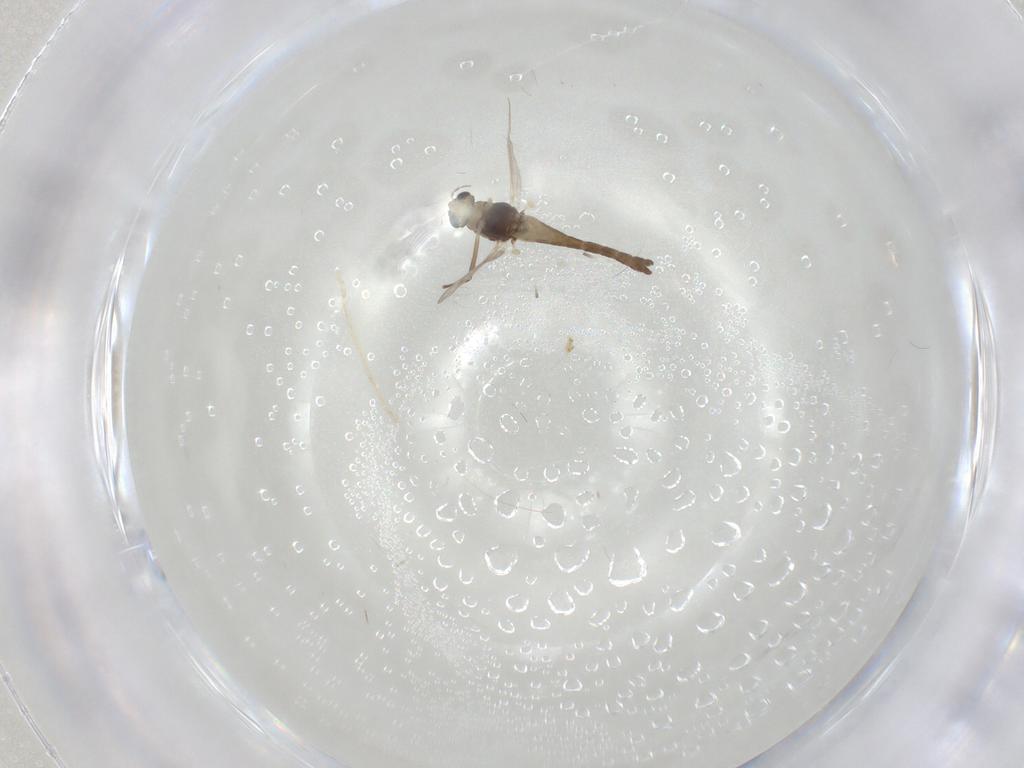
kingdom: Animalia
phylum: Arthropoda
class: Insecta
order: Diptera
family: Chironomidae
